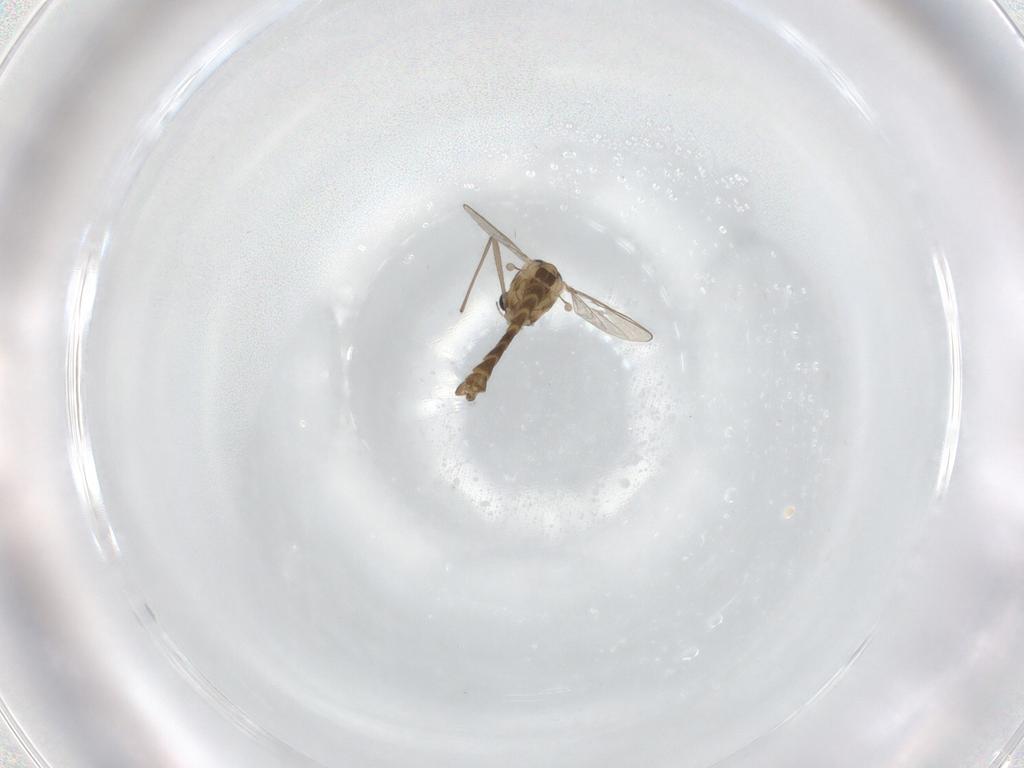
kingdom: Animalia
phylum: Arthropoda
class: Insecta
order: Diptera
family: Chironomidae
